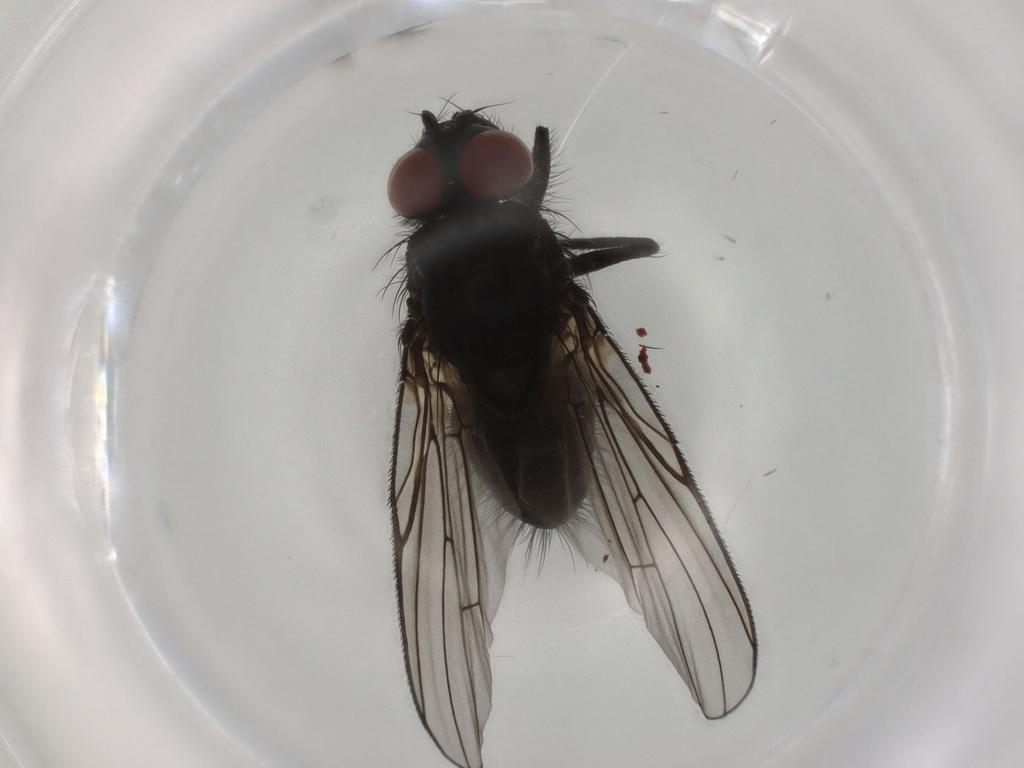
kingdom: Animalia
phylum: Arthropoda
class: Insecta
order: Diptera
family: Muscidae
